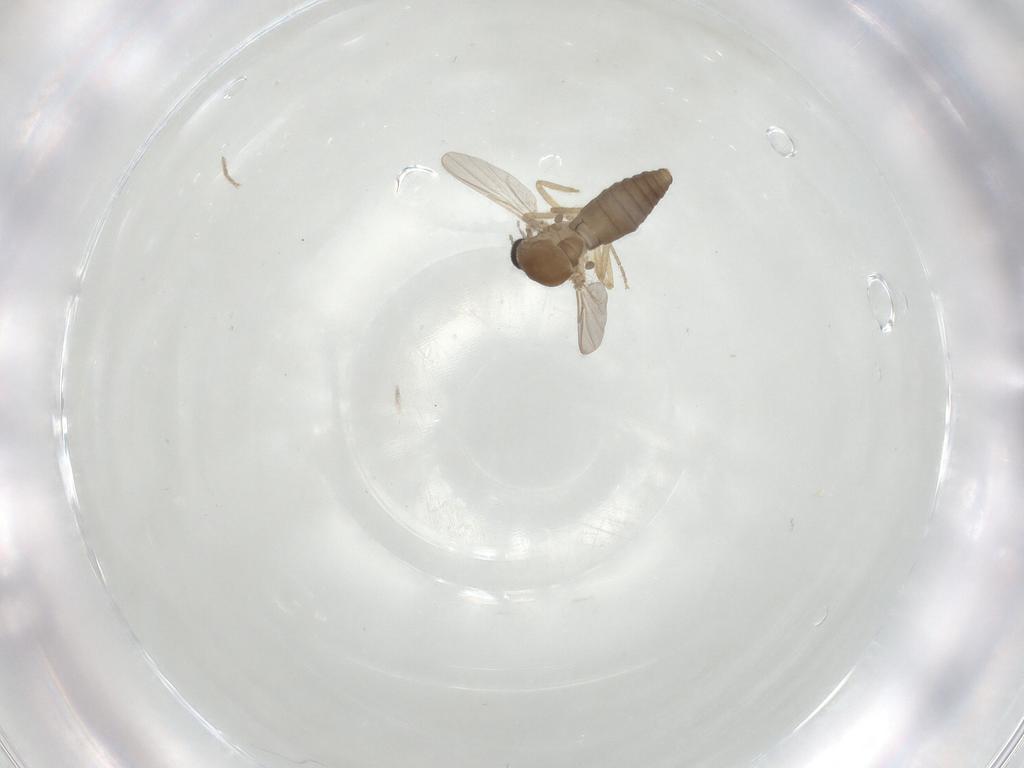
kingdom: Animalia
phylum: Arthropoda
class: Insecta
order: Diptera
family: Ceratopogonidae
